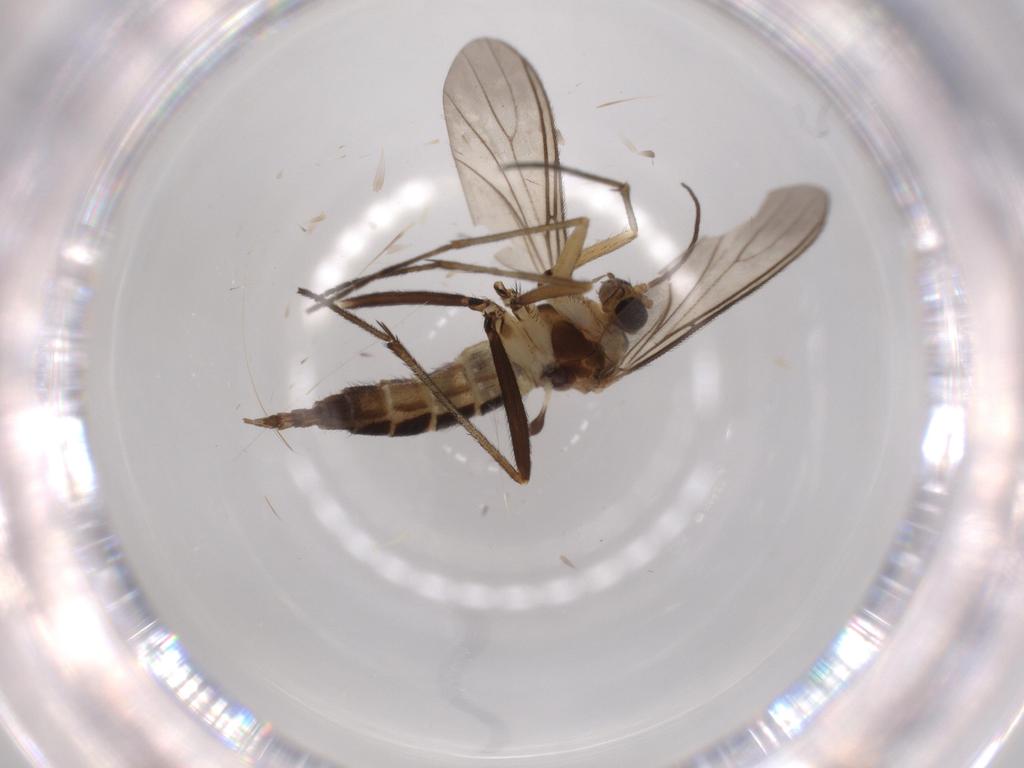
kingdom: Animalia
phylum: Arthropoda
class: Insecta
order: Diptera
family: Sciaridae
